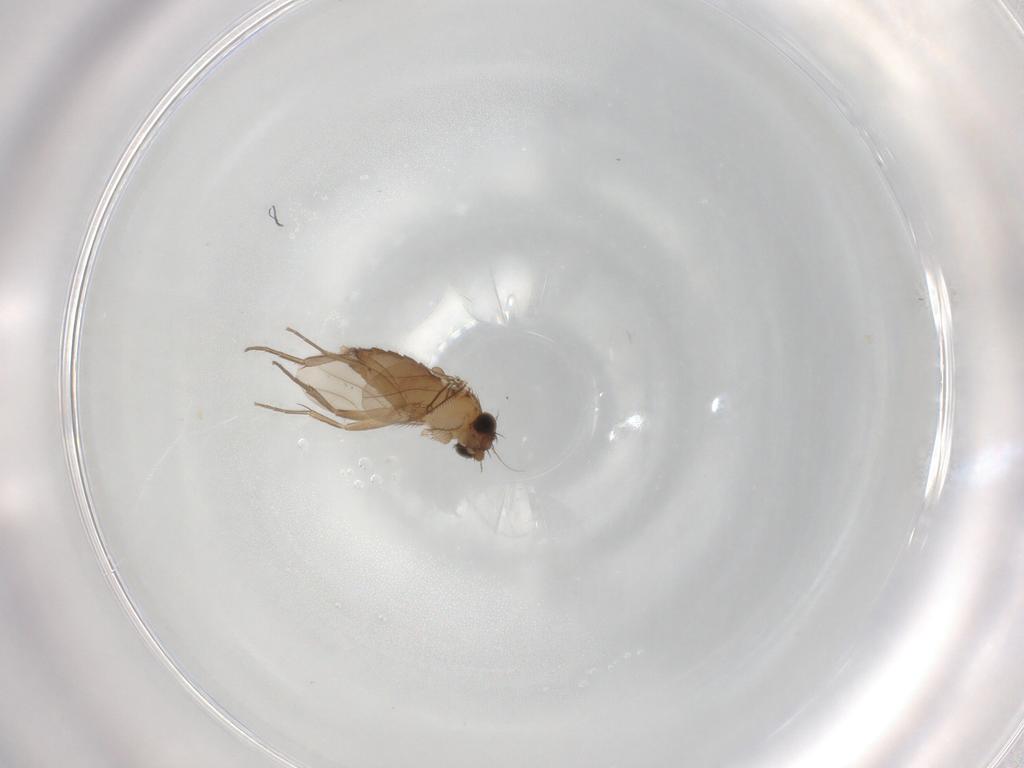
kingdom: Animalia
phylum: Arthropoda
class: Insecta
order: Diptera
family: Phoridae
